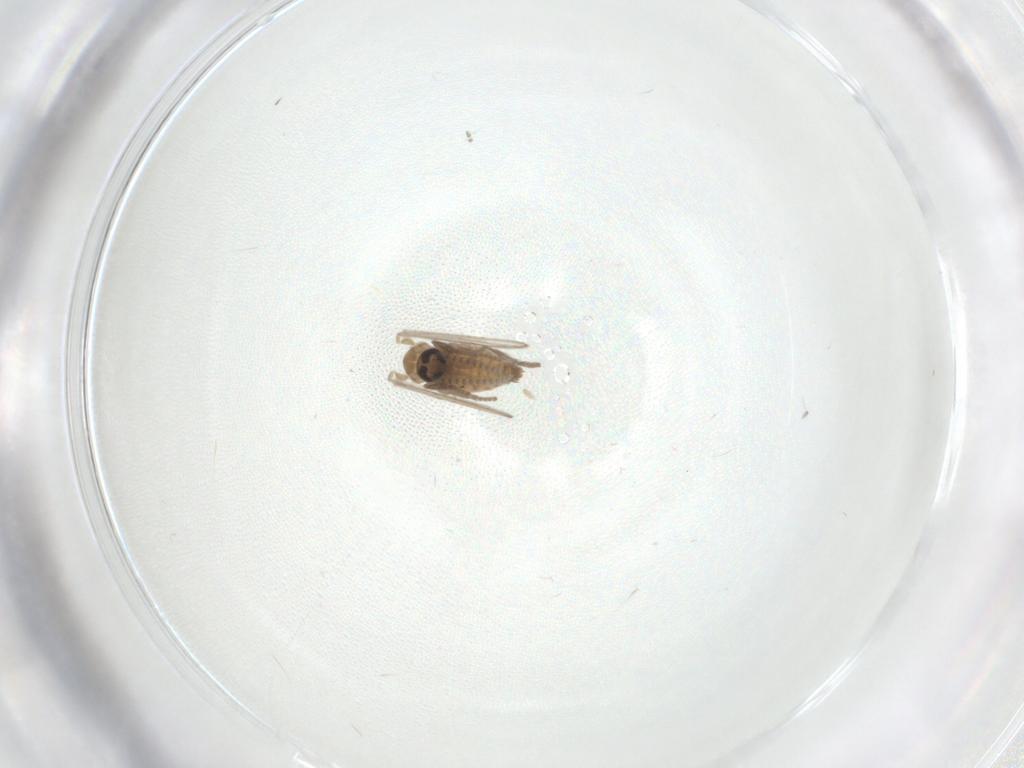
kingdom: Animalia
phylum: Arthropoda
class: Insecta
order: Diptera
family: Psychodidae
